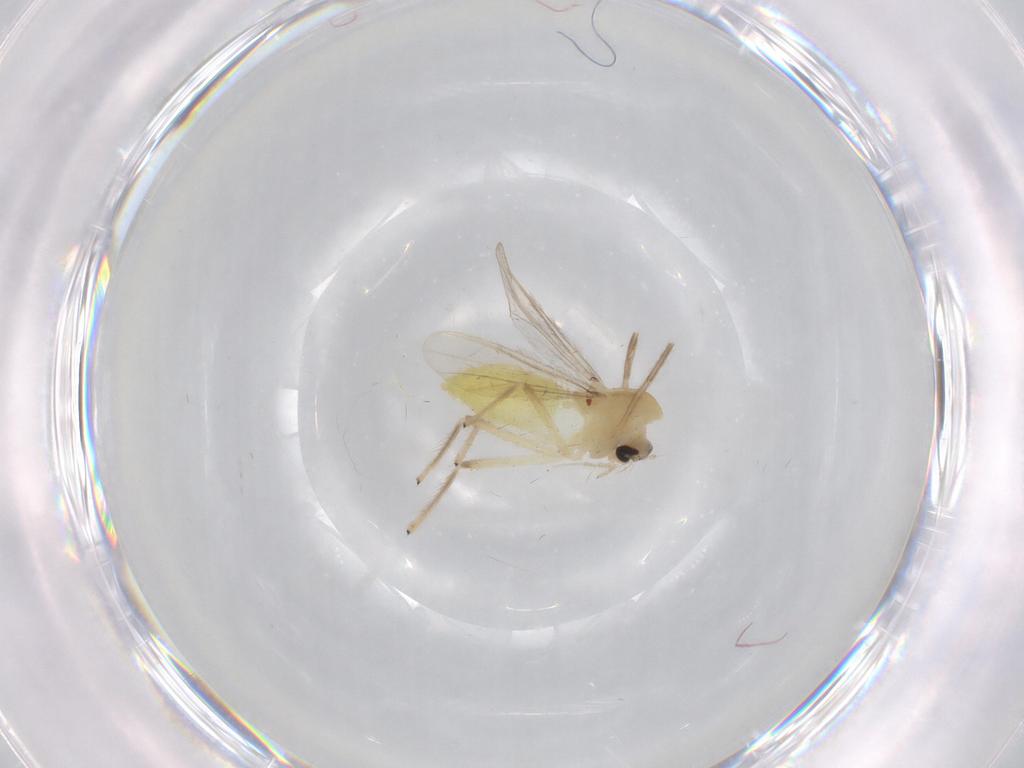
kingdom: Animalia
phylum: Arthropoda
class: Insecta
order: Diptera
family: Chironomidae
